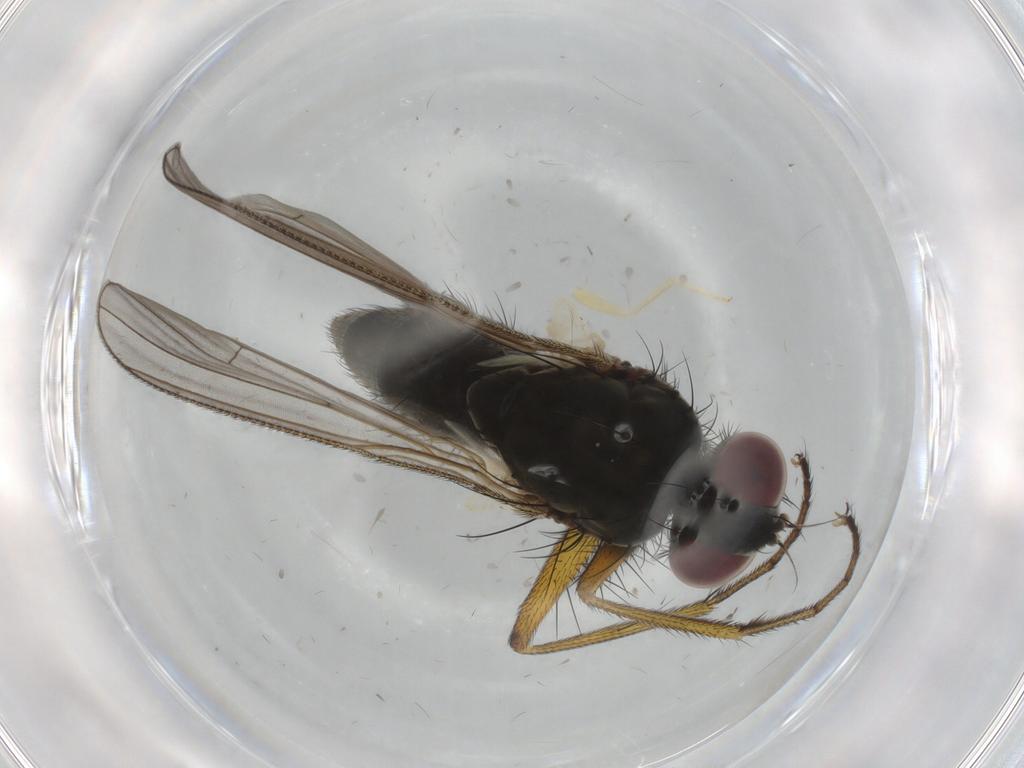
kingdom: Animalia
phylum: Arthropoda
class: Insecta
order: Diptera
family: Muscidae
